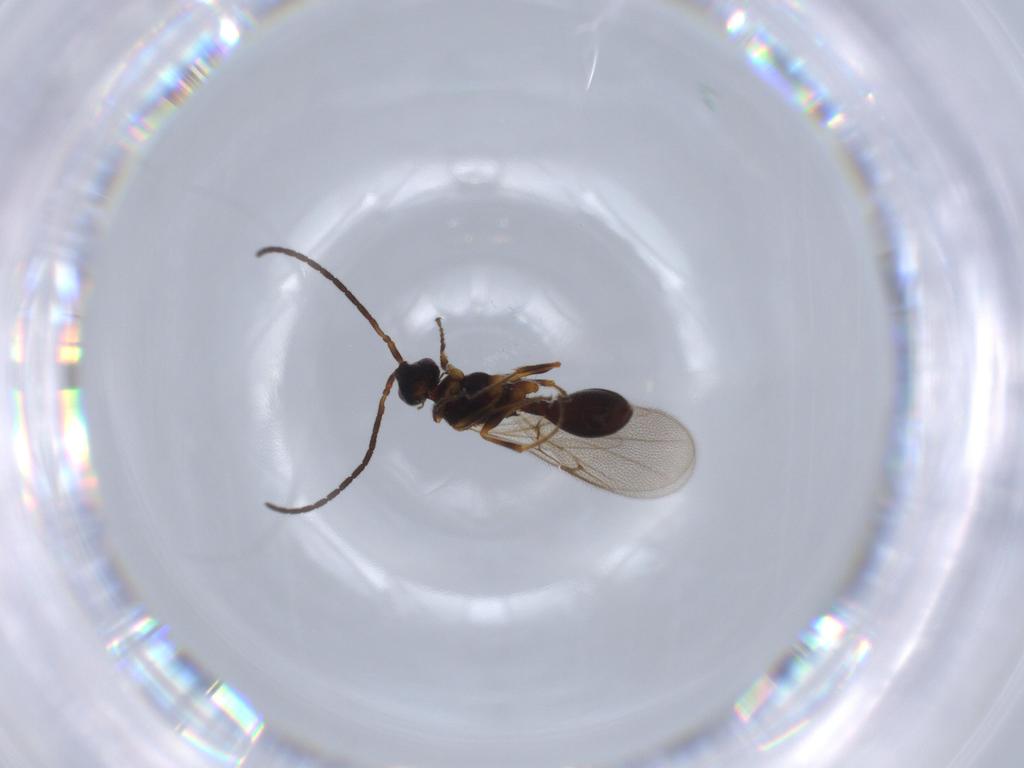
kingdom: Animalia
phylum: Arthropoda
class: Insecta
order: Hymenoptera
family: Diapriidae
